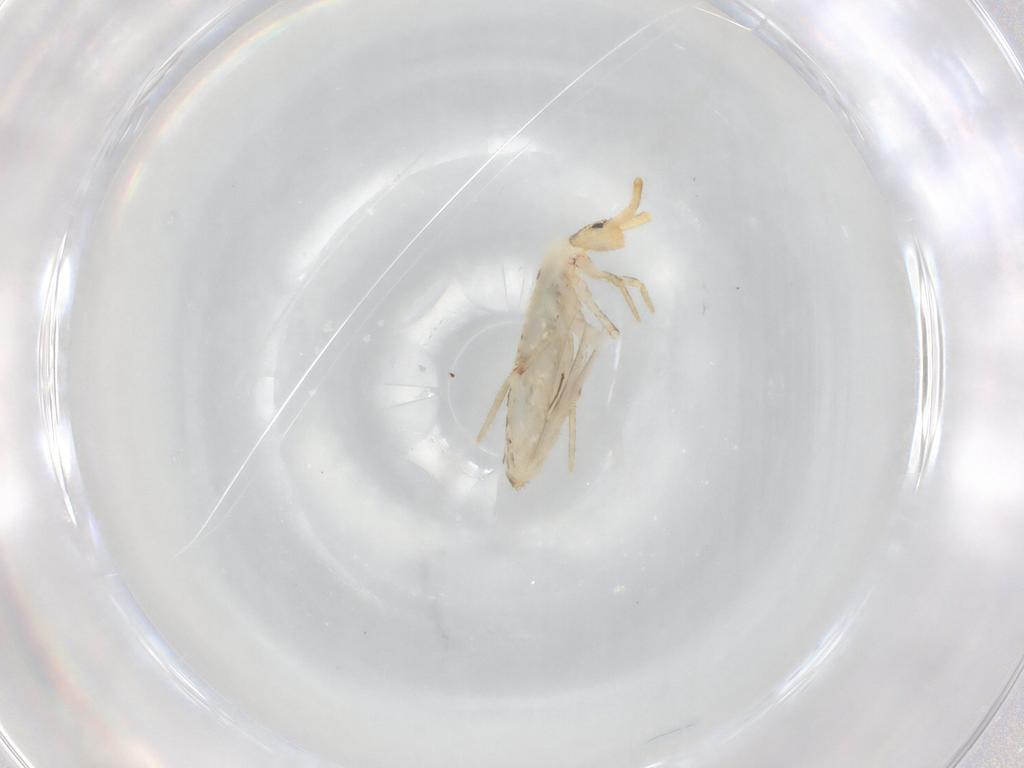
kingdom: Animalia
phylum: Arthropoda
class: Collembola
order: Poduromorpha
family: Hypogastruridae
